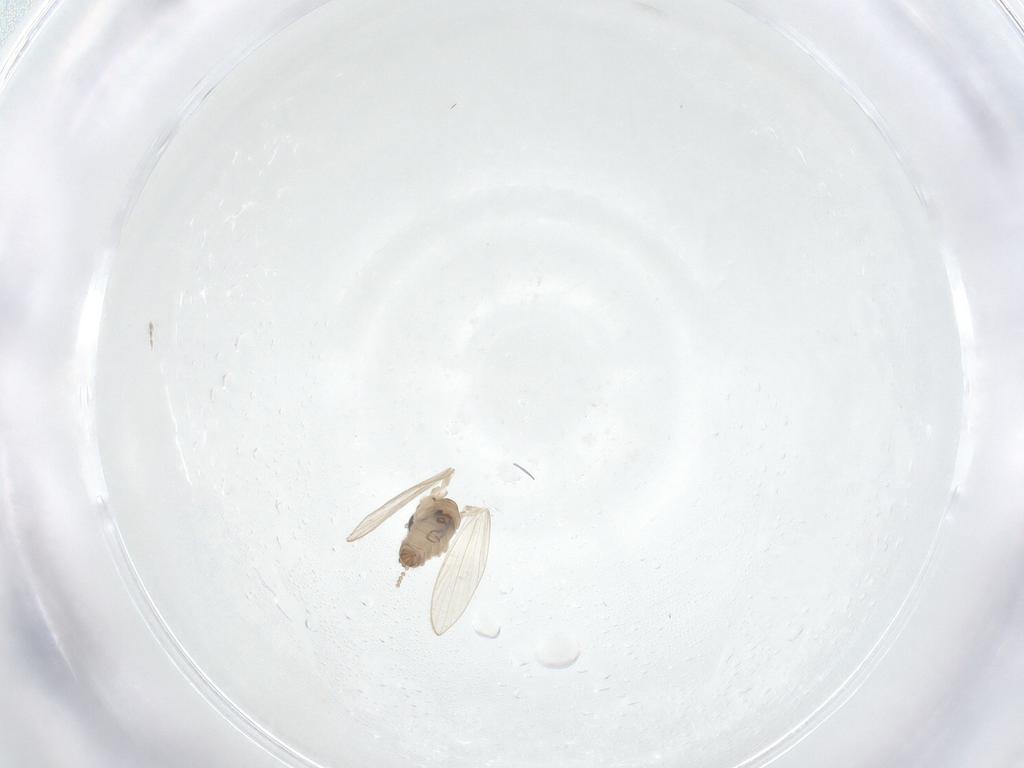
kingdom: Animalia
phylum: Arthropoda
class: Insecta
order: Diptera
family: Psychodidae
